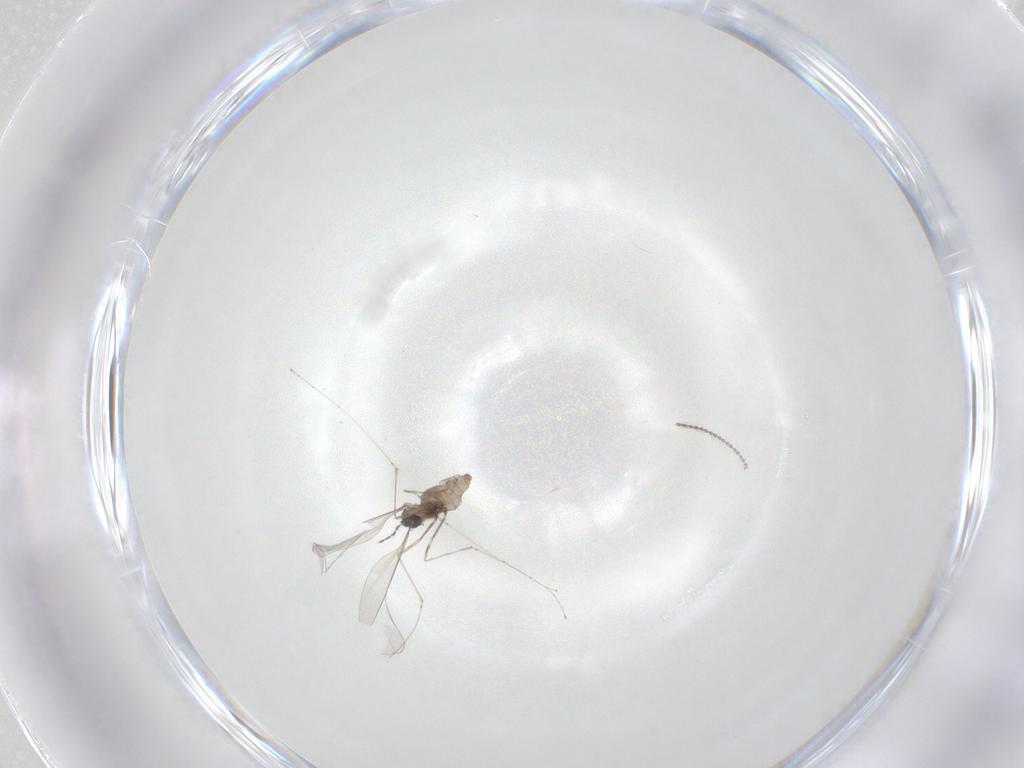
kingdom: Animalia
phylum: Arthropoda
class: Insecta
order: Diptera
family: Cecidomyiidae
